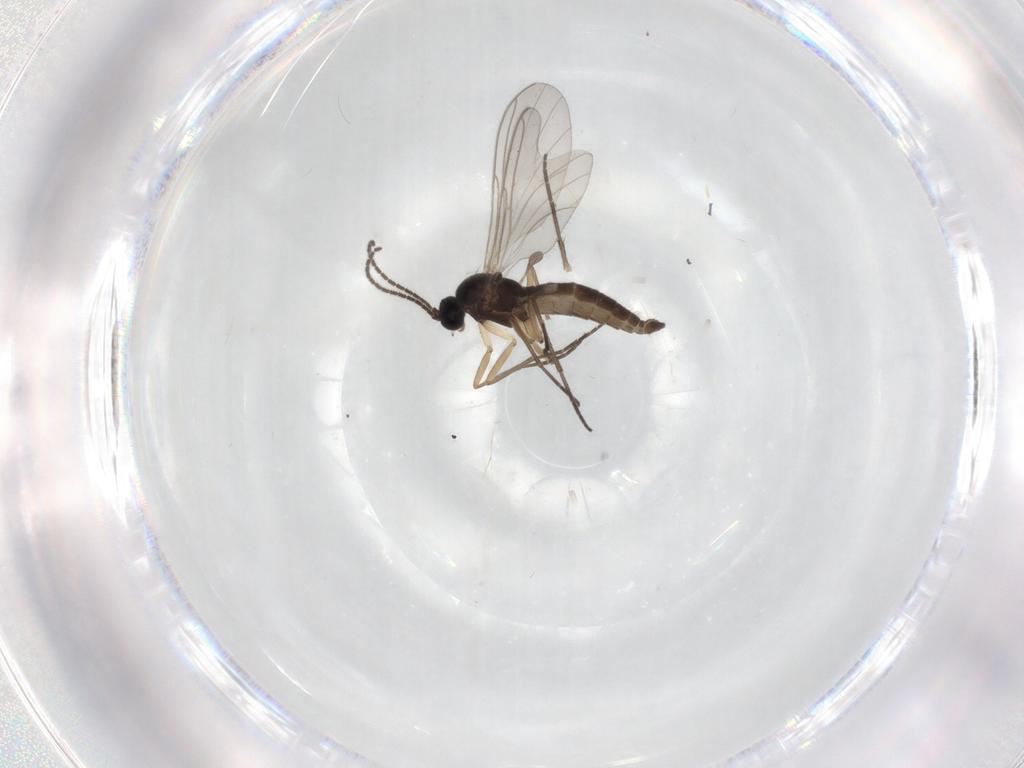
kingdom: Animalia
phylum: Arthropoda
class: Insecta
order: Diptera
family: Sciaridae
